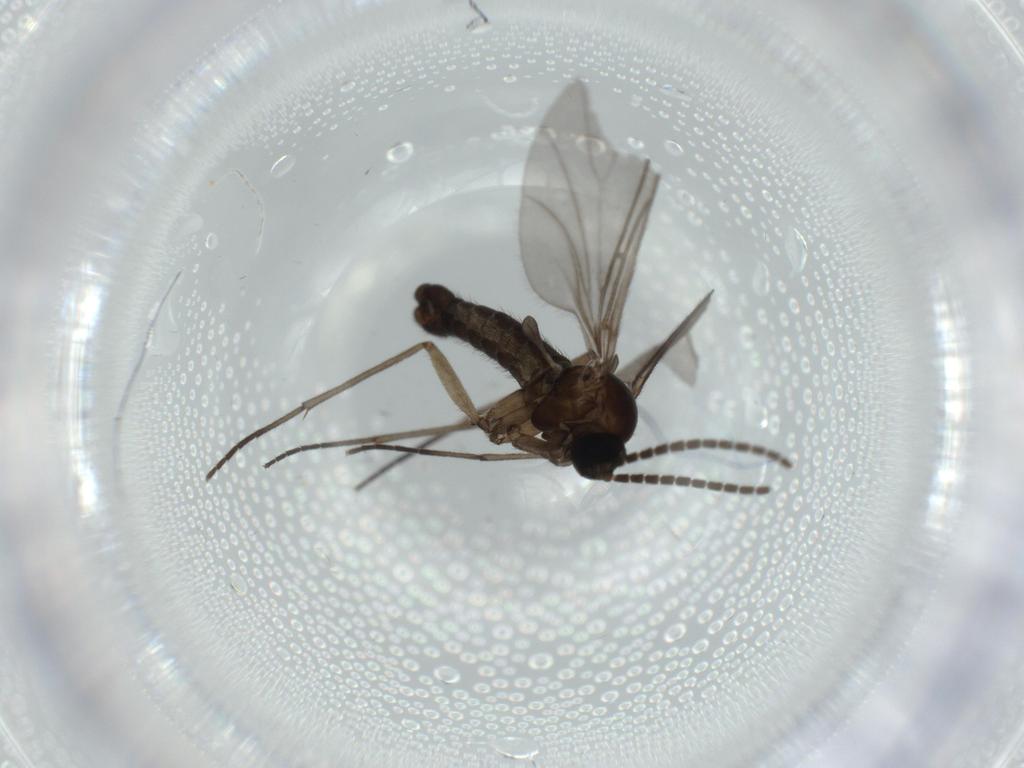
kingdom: Animalia
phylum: Arthropoda
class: Insecta
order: Diptera
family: Sciaridae
